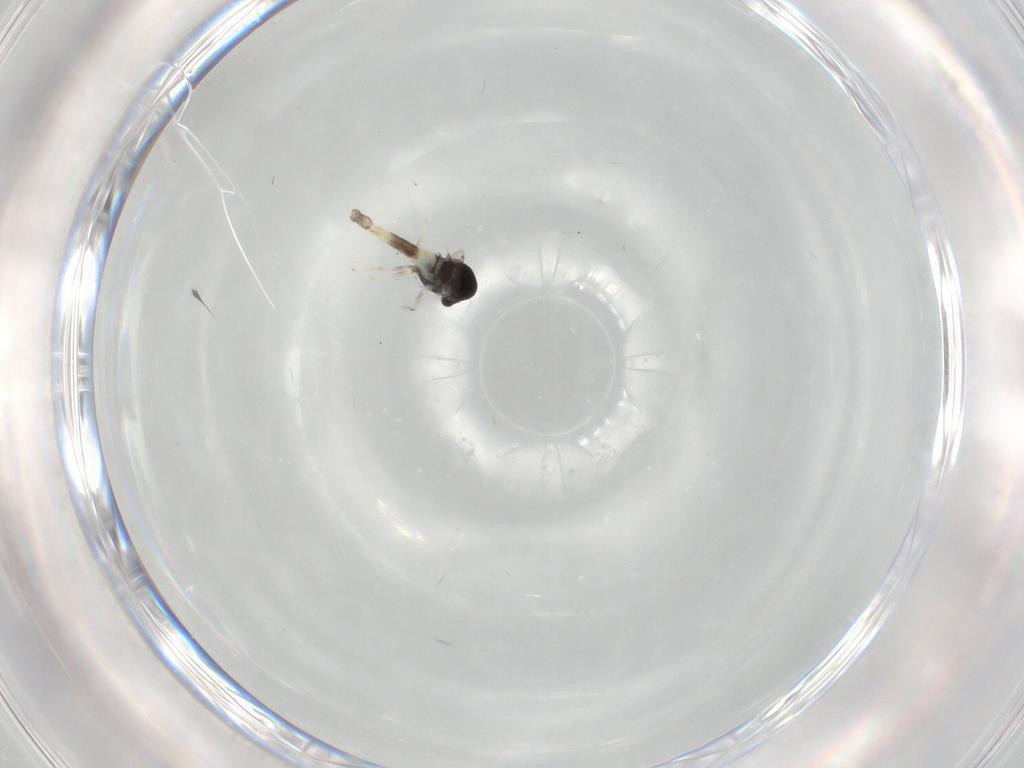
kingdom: Animalia
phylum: Arthropoda
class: Insecta
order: Diptera
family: Chironomidae
